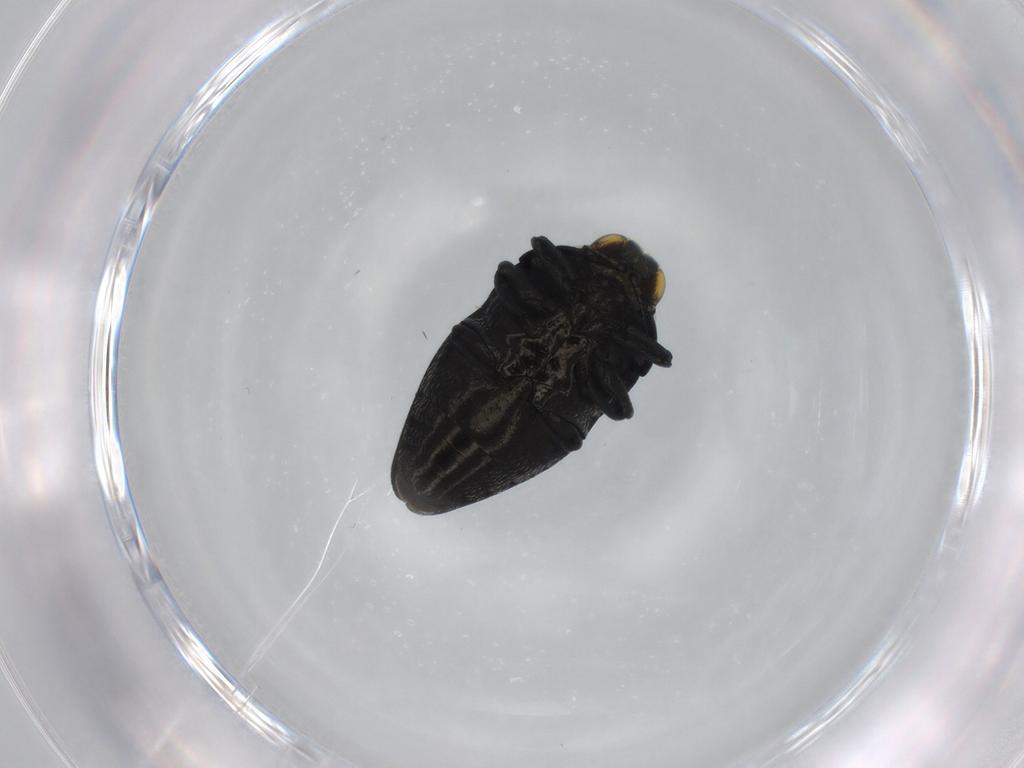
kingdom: Animalia
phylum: Arthropoda
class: Insecta
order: Coleoptera
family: Buprestidae
